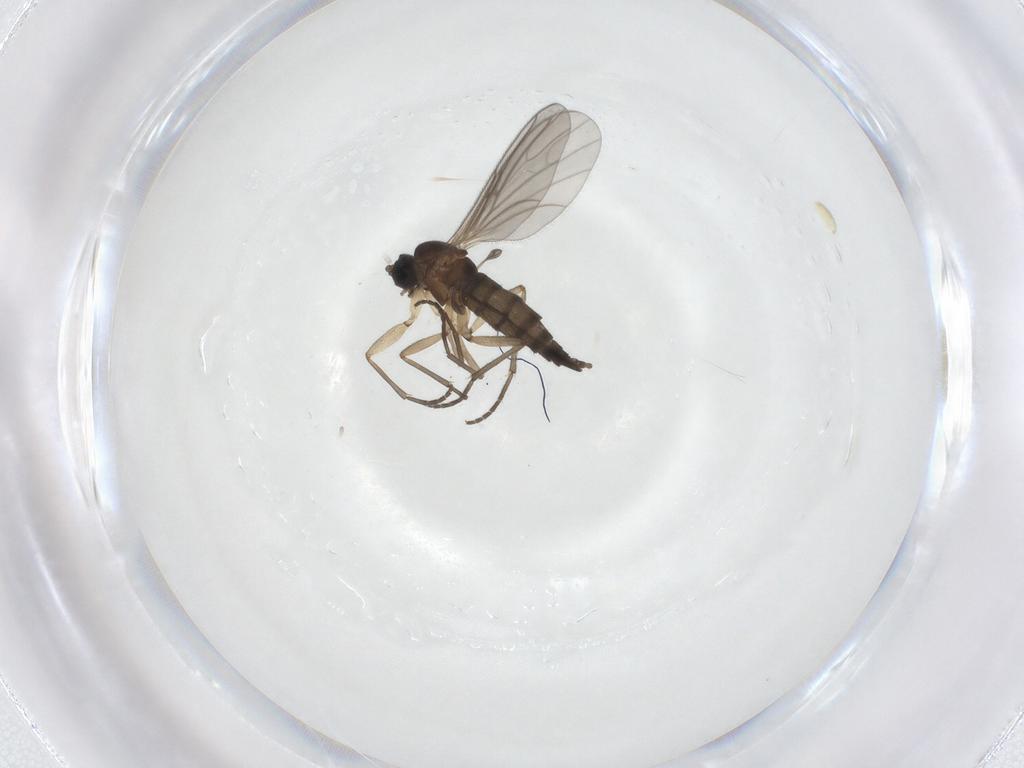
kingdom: Animalia
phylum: Arthropoda
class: Insecta
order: Diptera
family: Sciaridae
